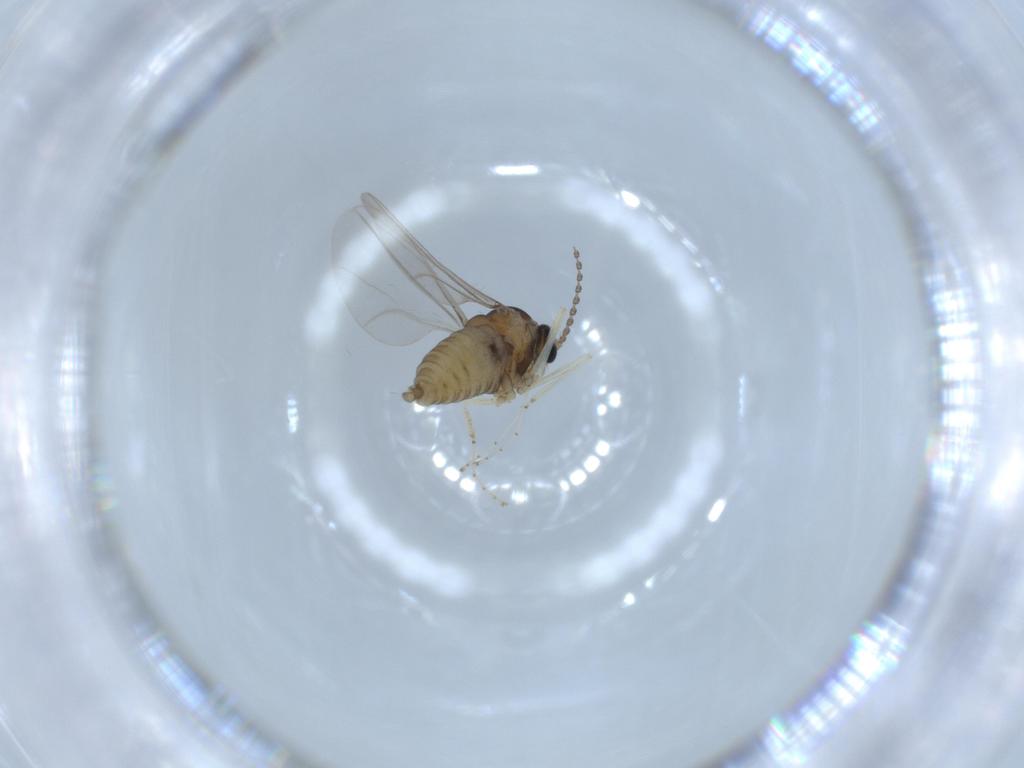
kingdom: Animalia
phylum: Arthropoda
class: Insecta
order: Diptera
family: Cecidomyiidae
